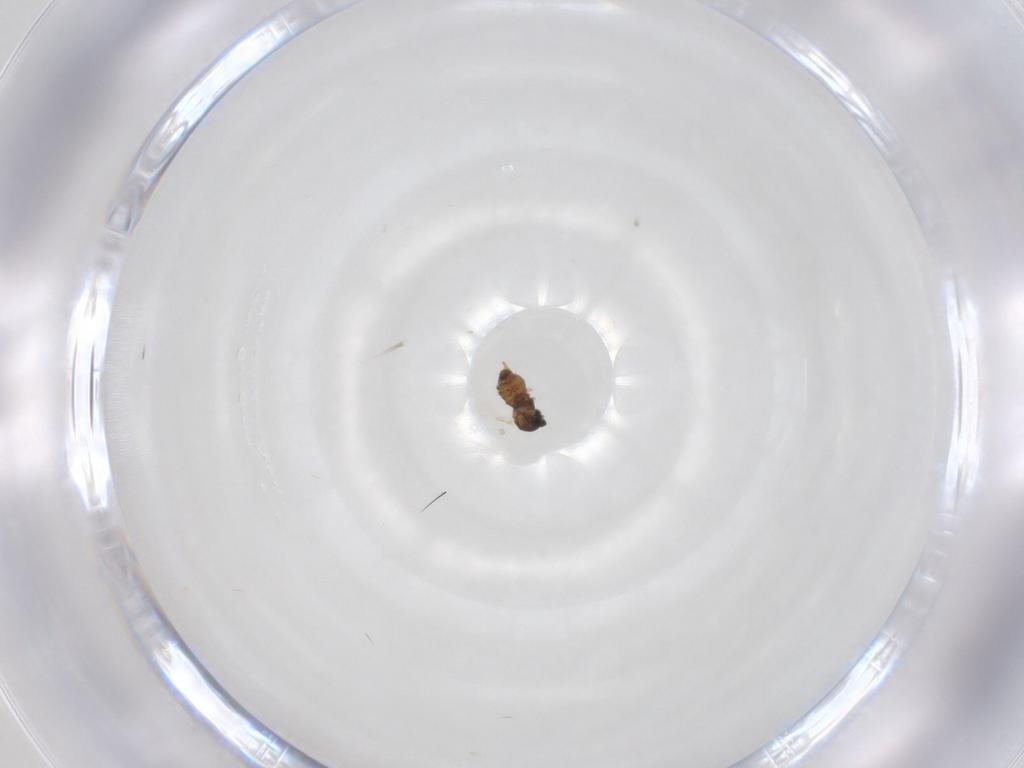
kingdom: Animalia
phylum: Arthropoda
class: Insecta
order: Diptera
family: Cecidomyiidae
